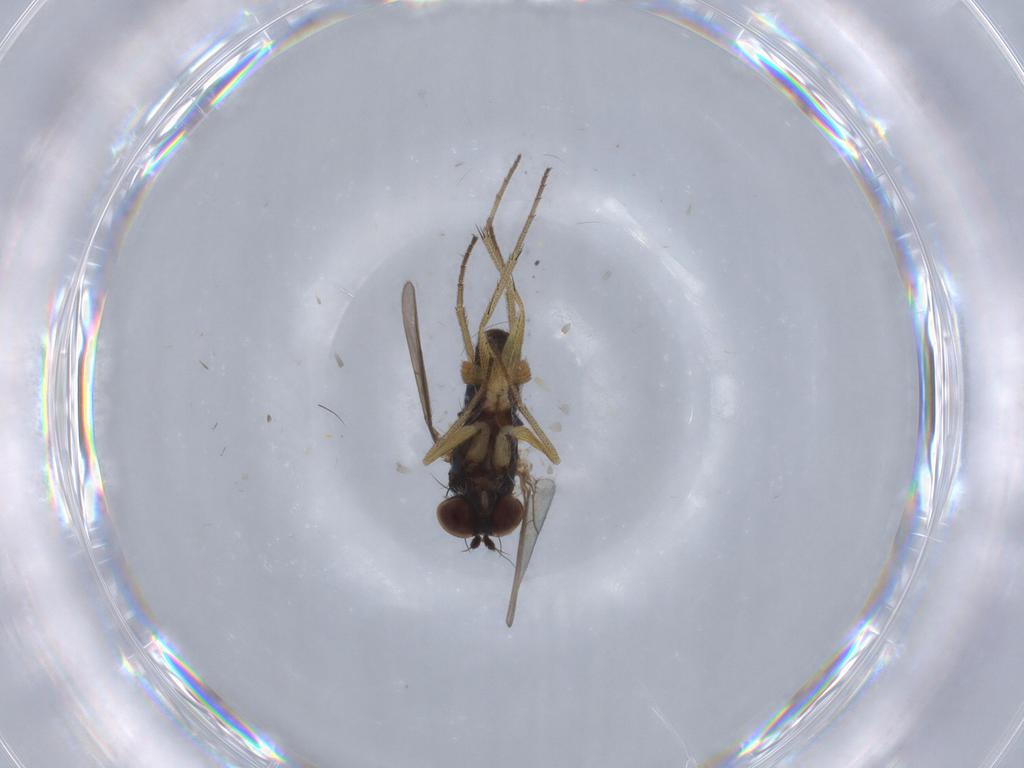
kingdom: Animalia
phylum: Arthropoda
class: Insecta
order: Diptera
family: Dolichopodidae
